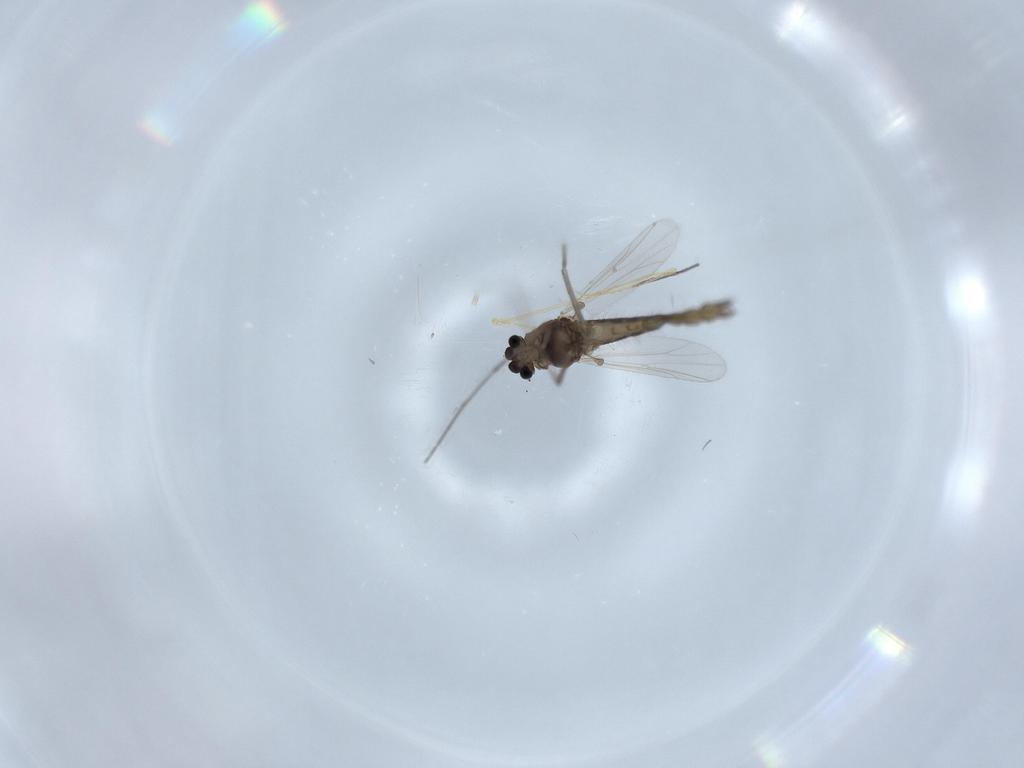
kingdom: Animalia
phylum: Arthropoda
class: Insecta
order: Diptera
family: Chironomidae
